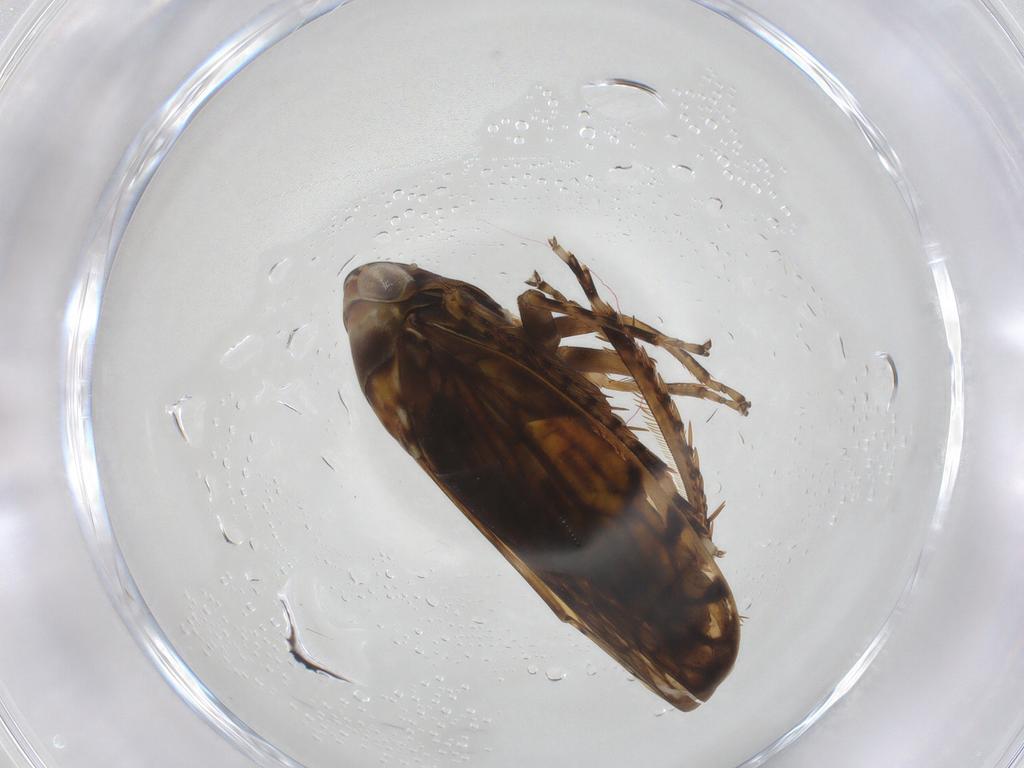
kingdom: Animalia
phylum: Arthropoda
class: Insecta
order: Hemiptera
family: Cicadellidae
